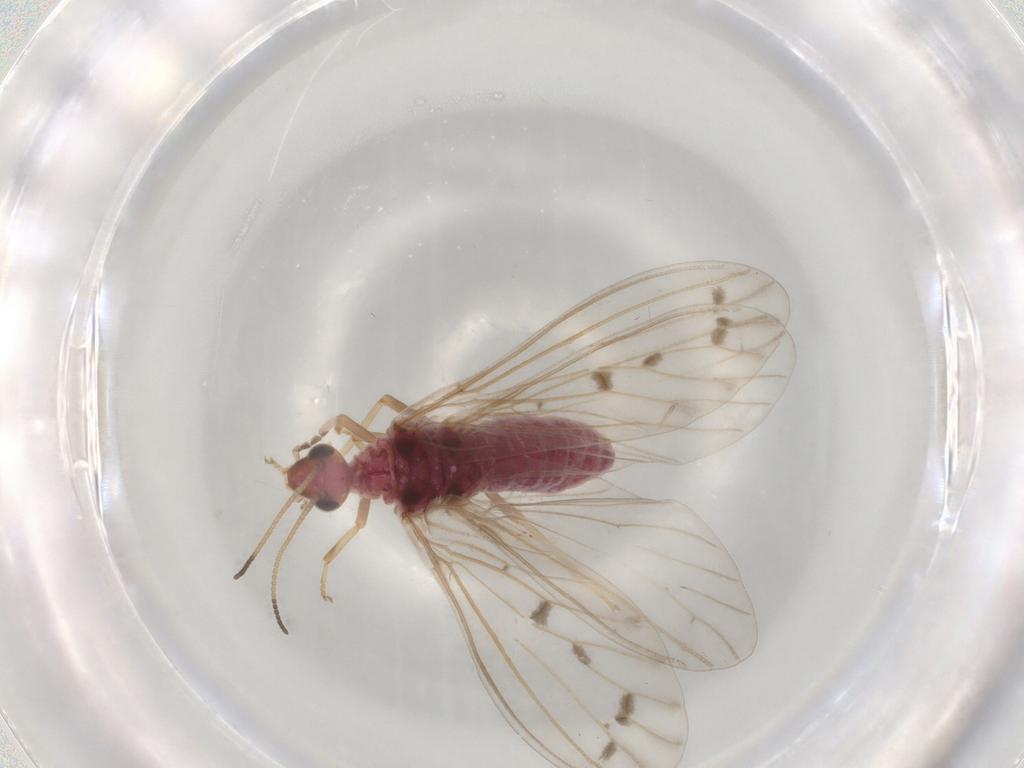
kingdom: Animalia
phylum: Arthropoda
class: Insecta
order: Neuroptera
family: Coniopterygidae
